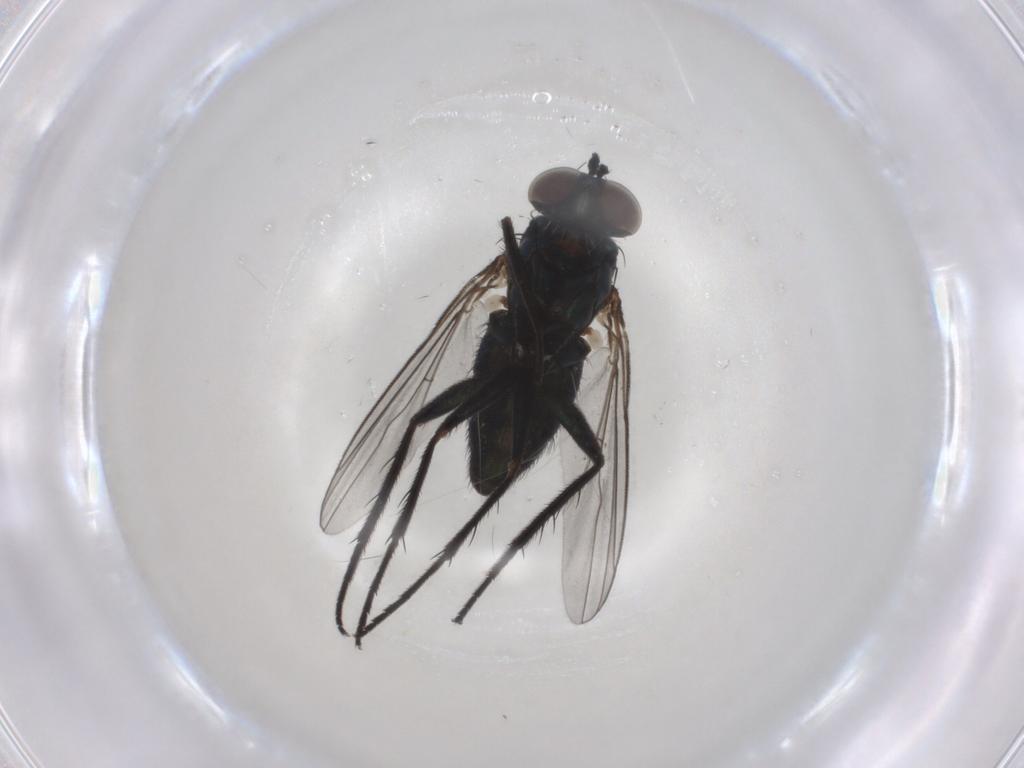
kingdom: Animalia
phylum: Arthropoda
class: Insecta
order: Diptera
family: Dolichopodidae
